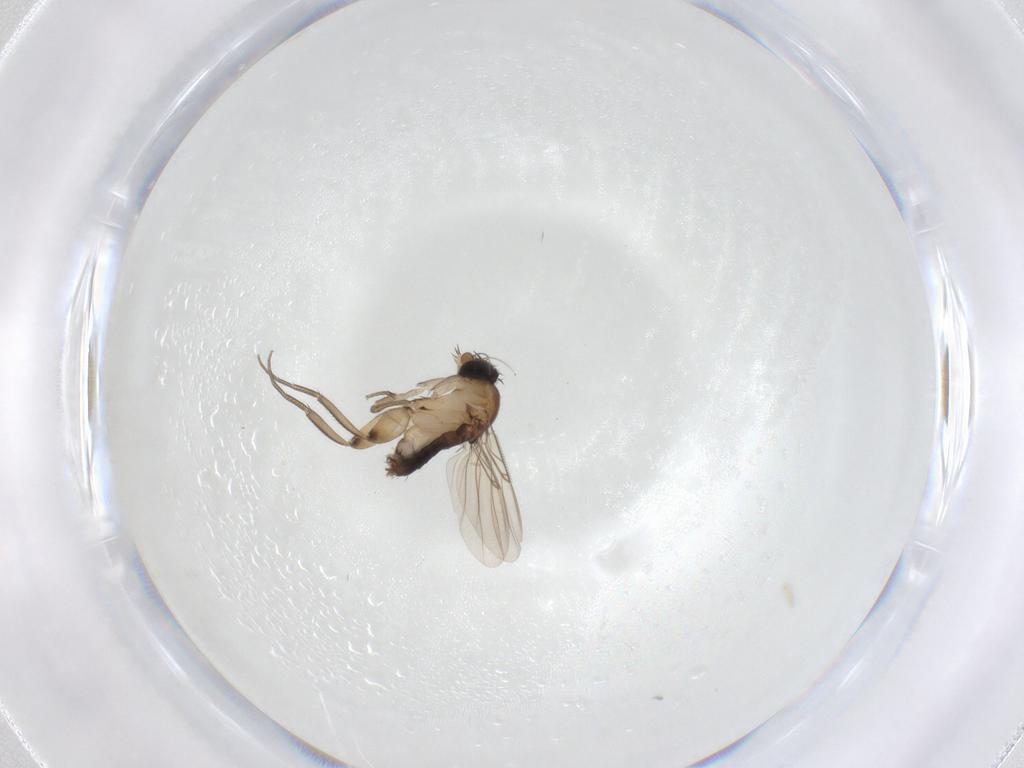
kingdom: Animalia
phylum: Arthropoda
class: Insecta
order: Diptera
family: Phoridae
